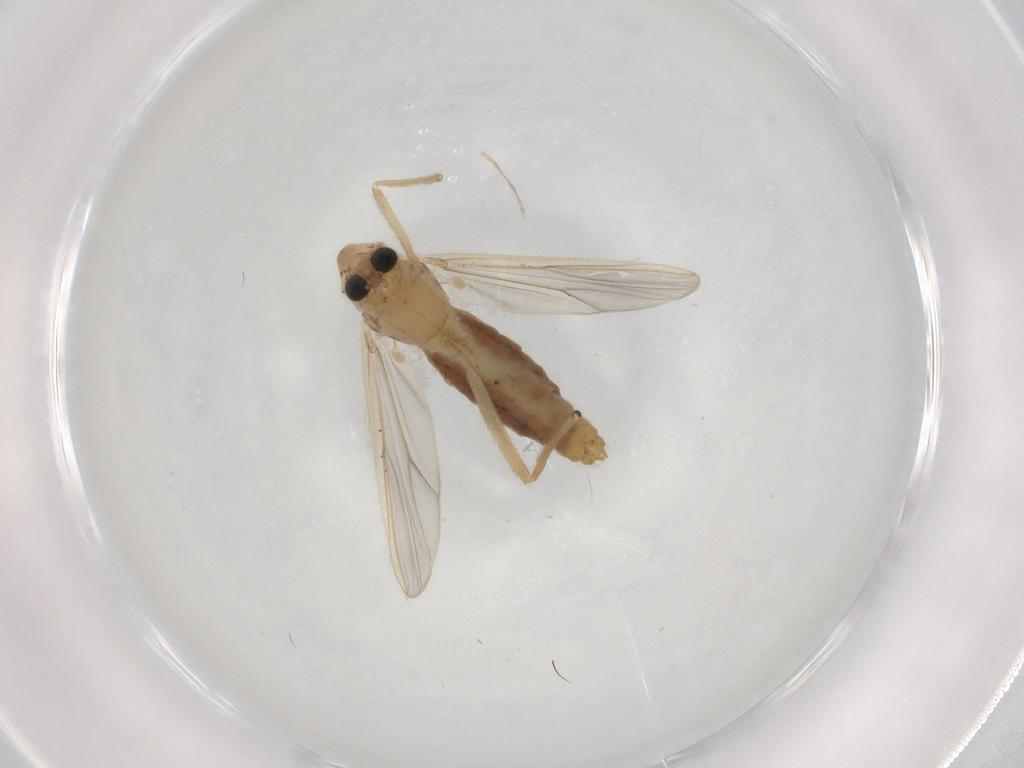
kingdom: Animalia
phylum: Arthropoda
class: Insecta
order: Diptera
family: Chironomidae
